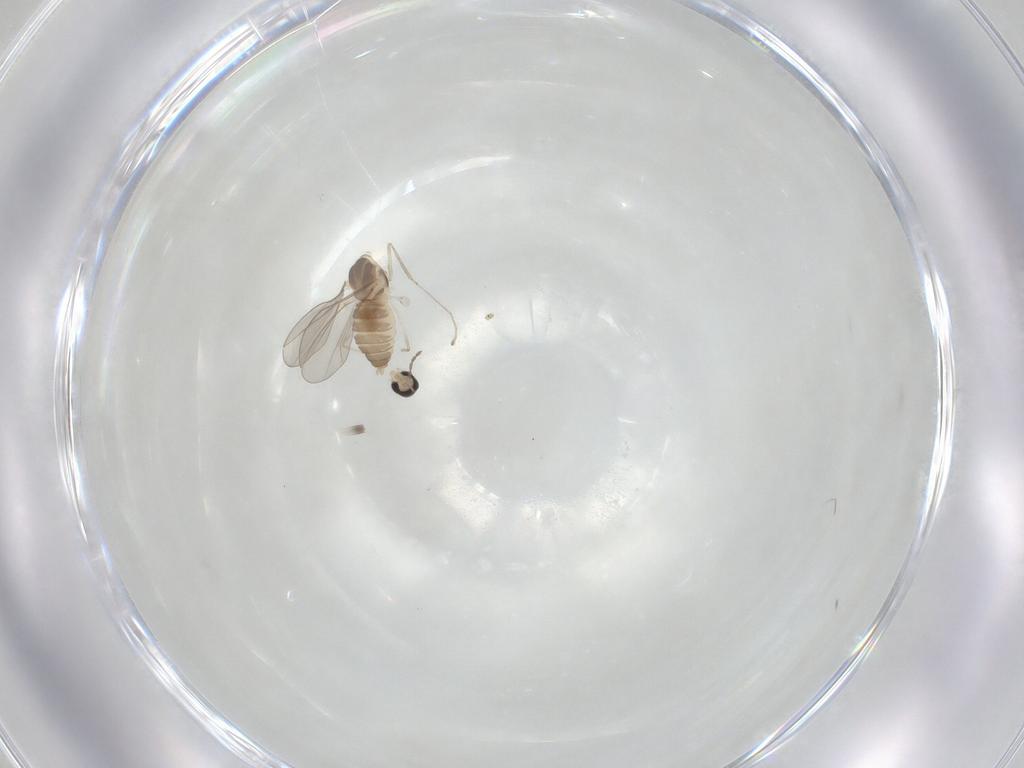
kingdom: Animalia
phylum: Arthropoda
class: Insecta
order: Diptera
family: Cecidomyiidae
